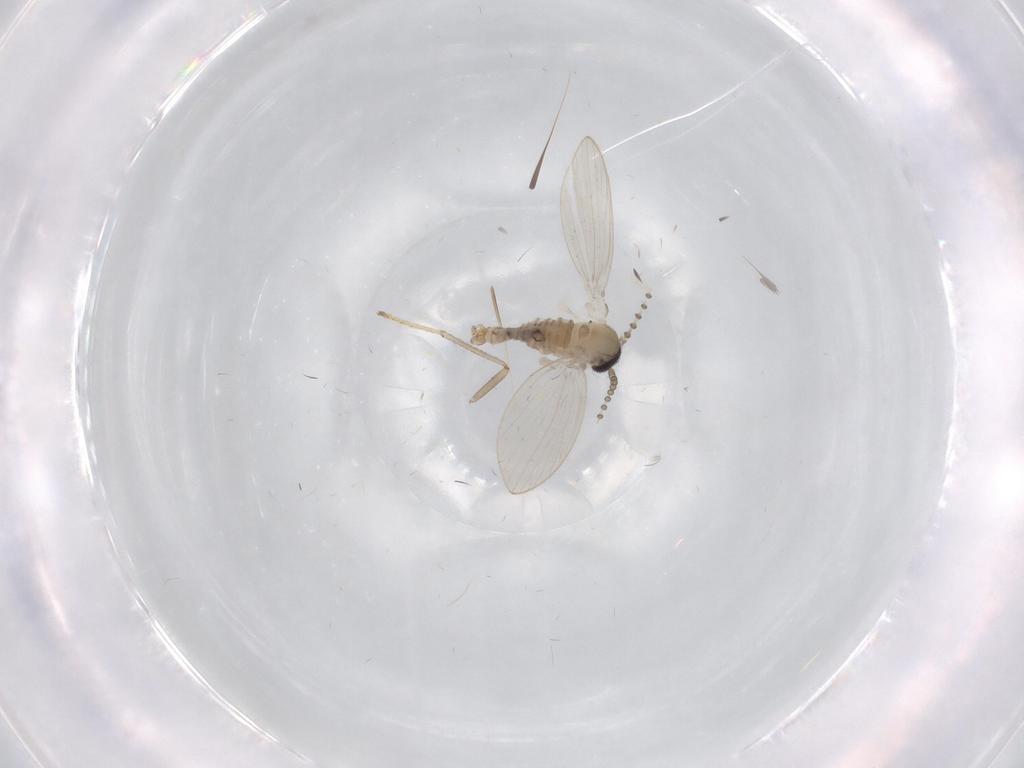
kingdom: Animalia
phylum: Arthropoda
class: Insecta
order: Diptera
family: Psychodidae
